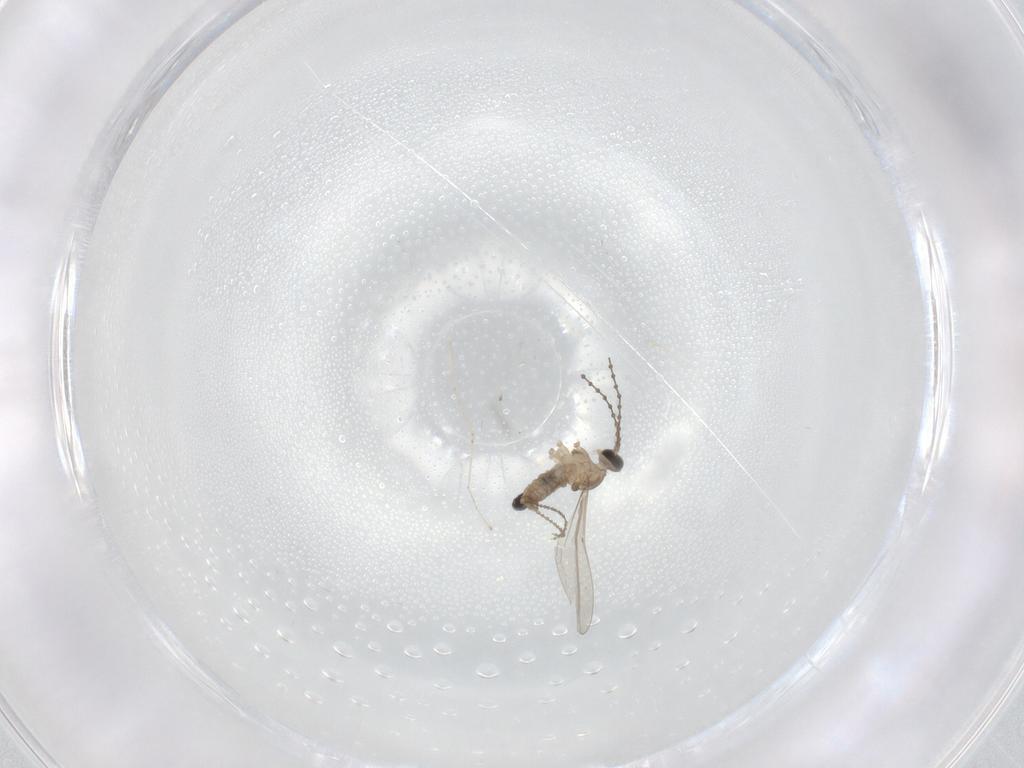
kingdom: Animalia
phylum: Arthropoda
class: Insecta
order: Diptera
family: Cecidomyiidae
